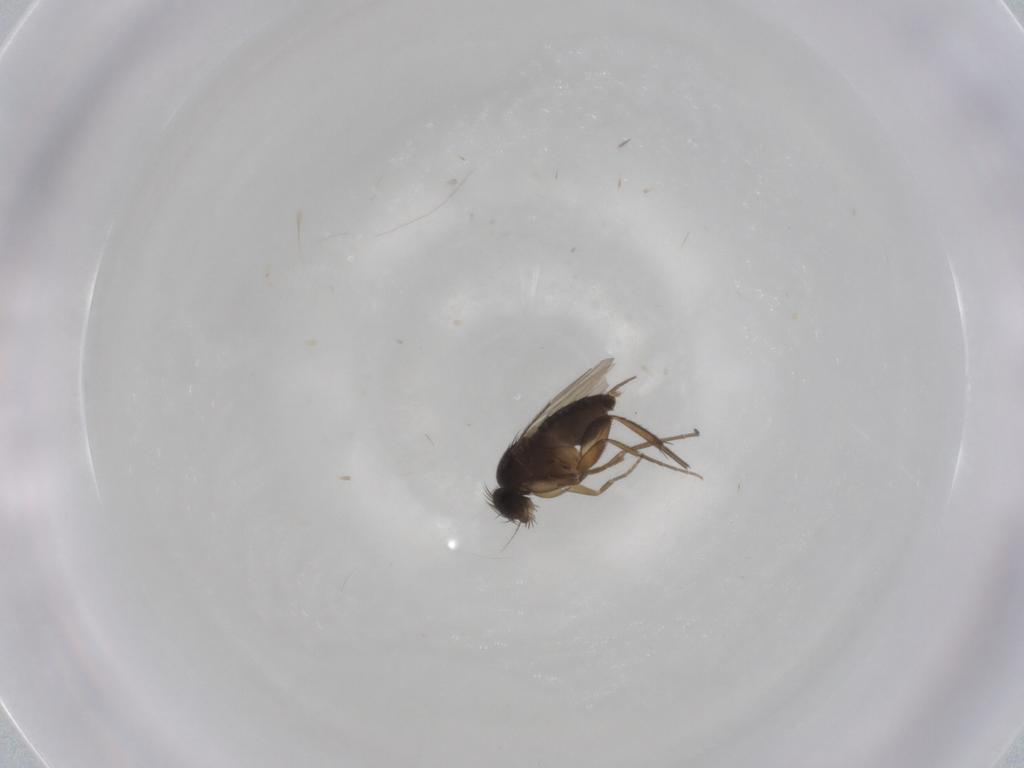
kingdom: Animalia
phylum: Arthropoda
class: Insecta
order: Diptera
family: Phoridae
